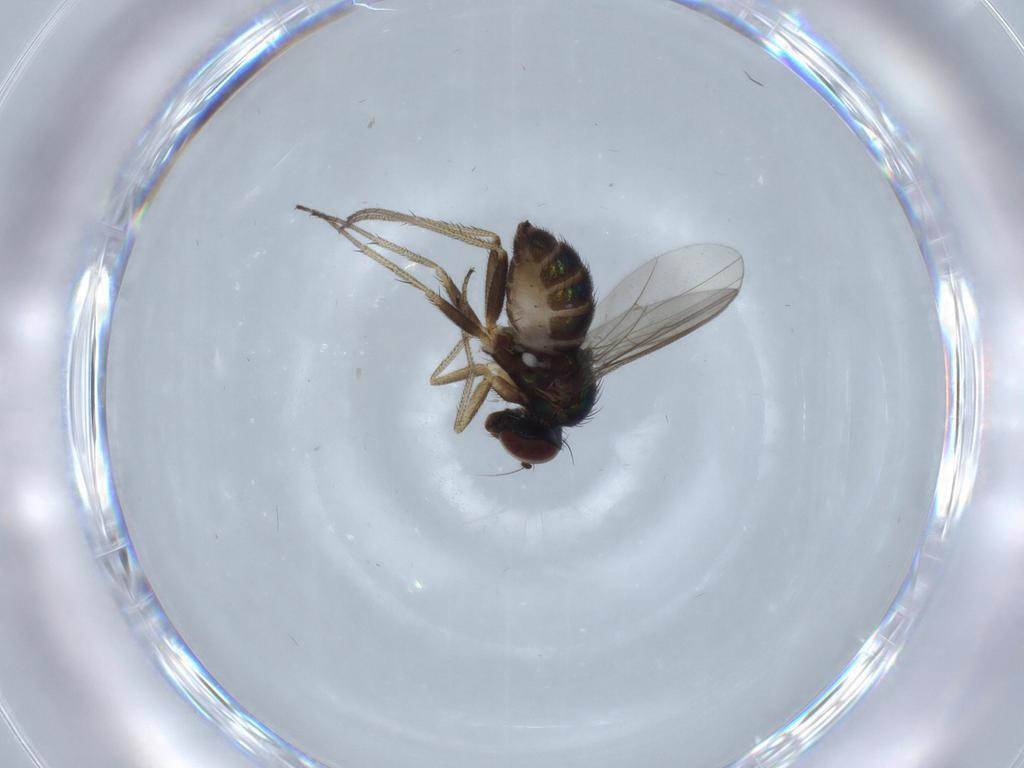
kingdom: Animalia
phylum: Arthropoda
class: Insecta
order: Diptera
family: Dolichopodidae
